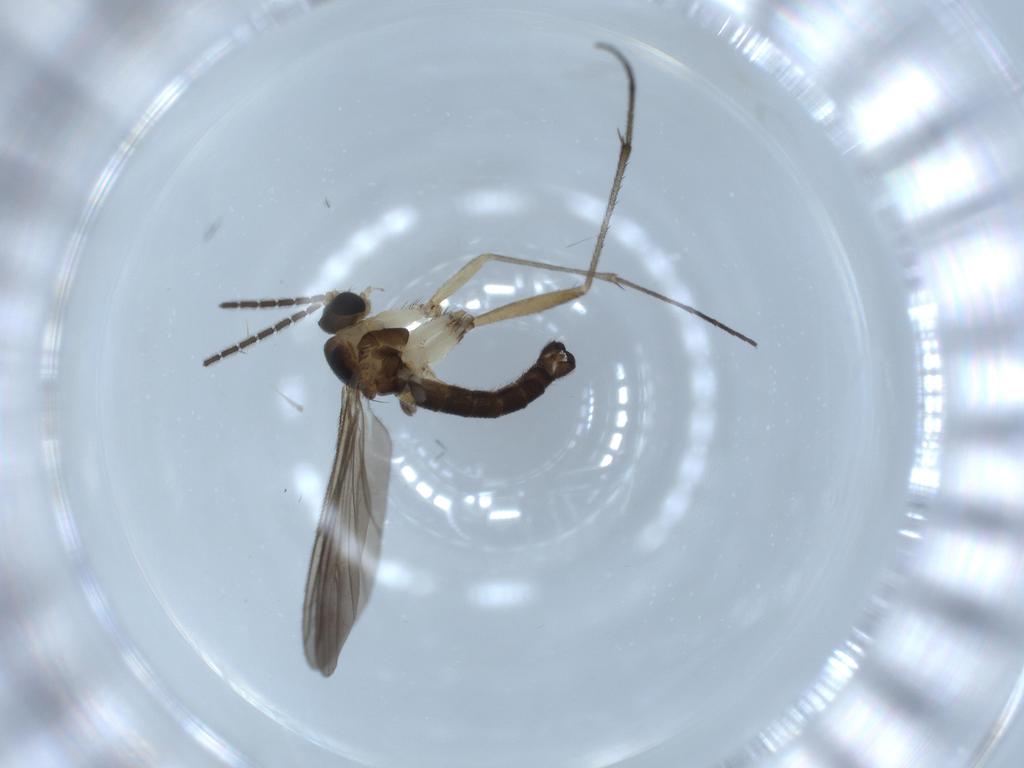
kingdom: Animalia
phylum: Arthropoda
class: Insecta
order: Diptera
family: Sciaridae
